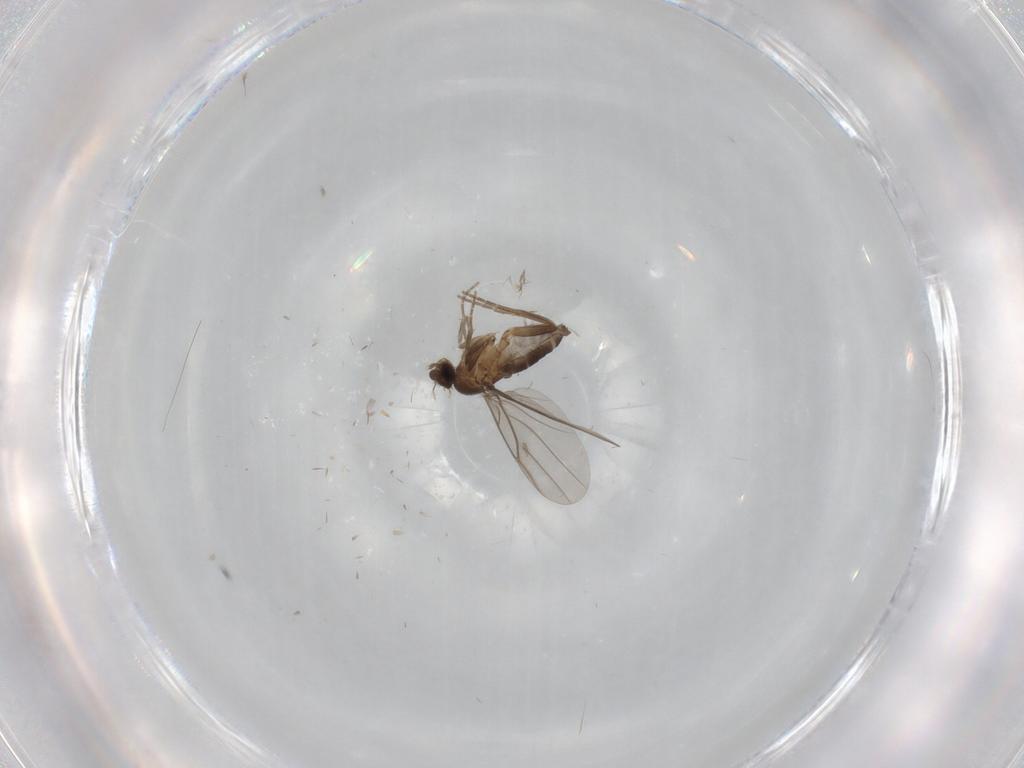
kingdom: Animalia
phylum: Arthropoda
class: Insecta
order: Diptera
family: Phoridae
